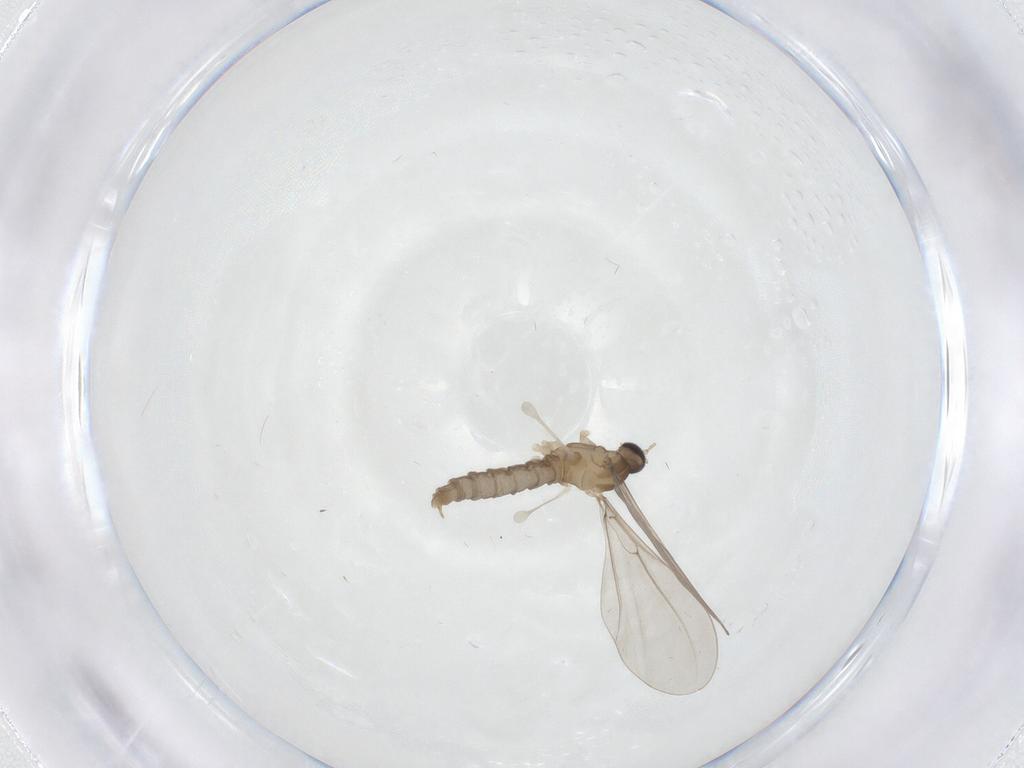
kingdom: Animalia
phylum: Arthropoda
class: Insecta
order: Diptera
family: Cecidomyiidae
